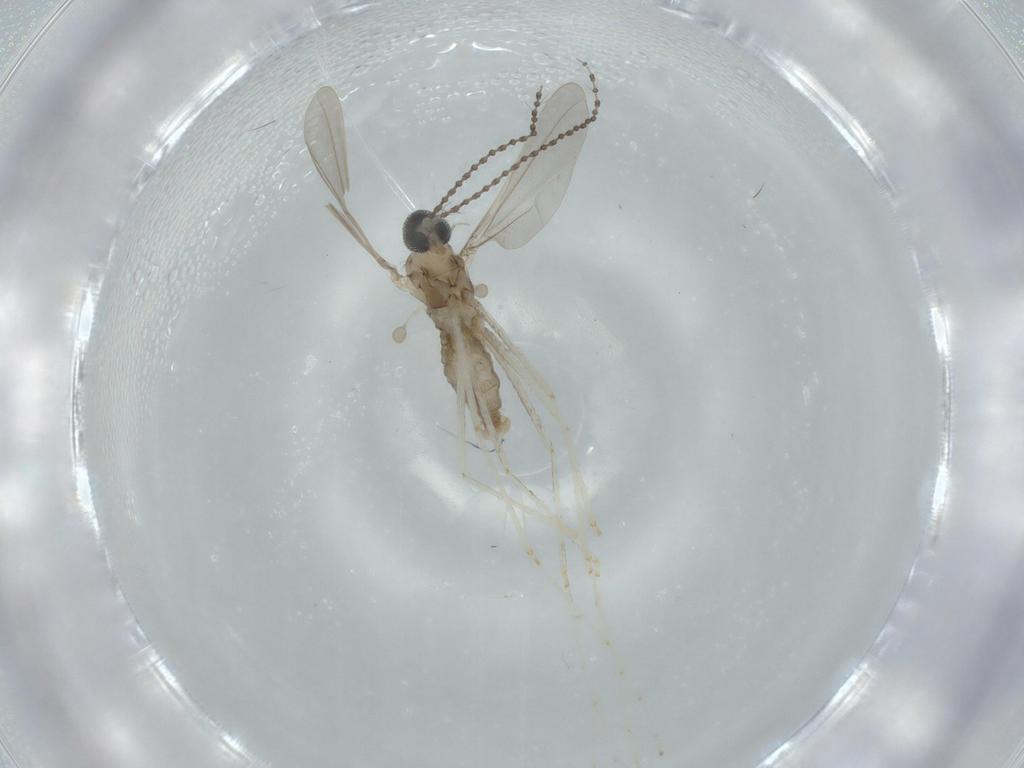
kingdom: Animalia
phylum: Arthropoda
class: Insecta
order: Diptera
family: Cecidomyiidae
